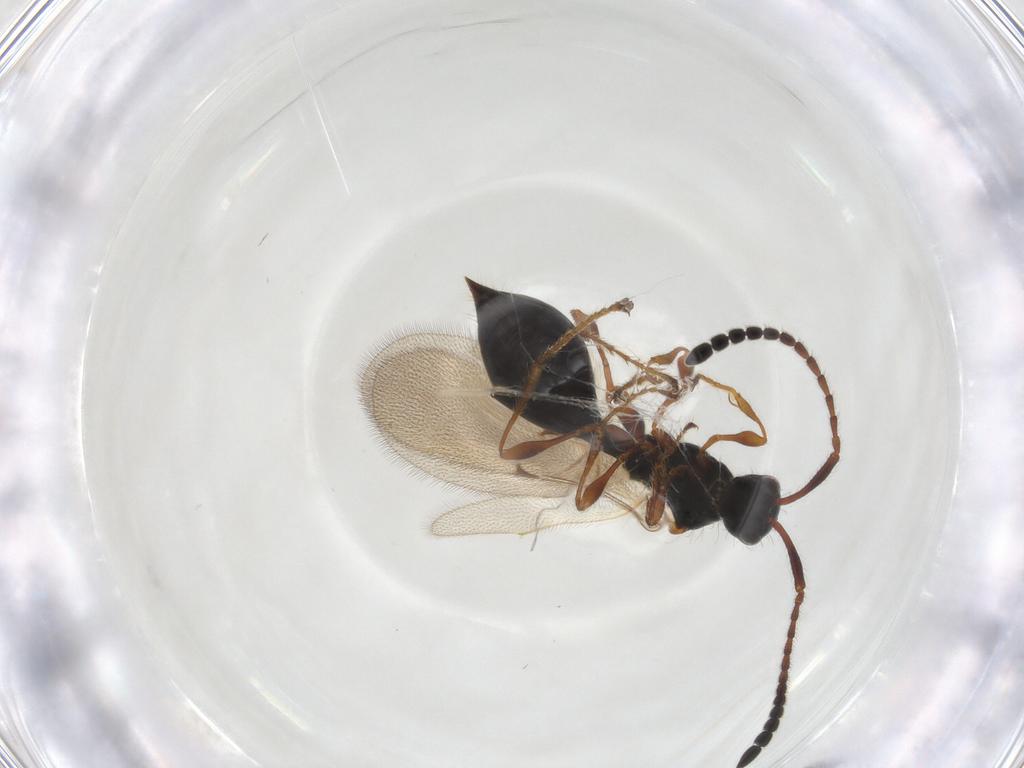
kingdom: Animalia
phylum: Arthropoda
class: Insecta
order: Hymenoptera
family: Diapriidae
